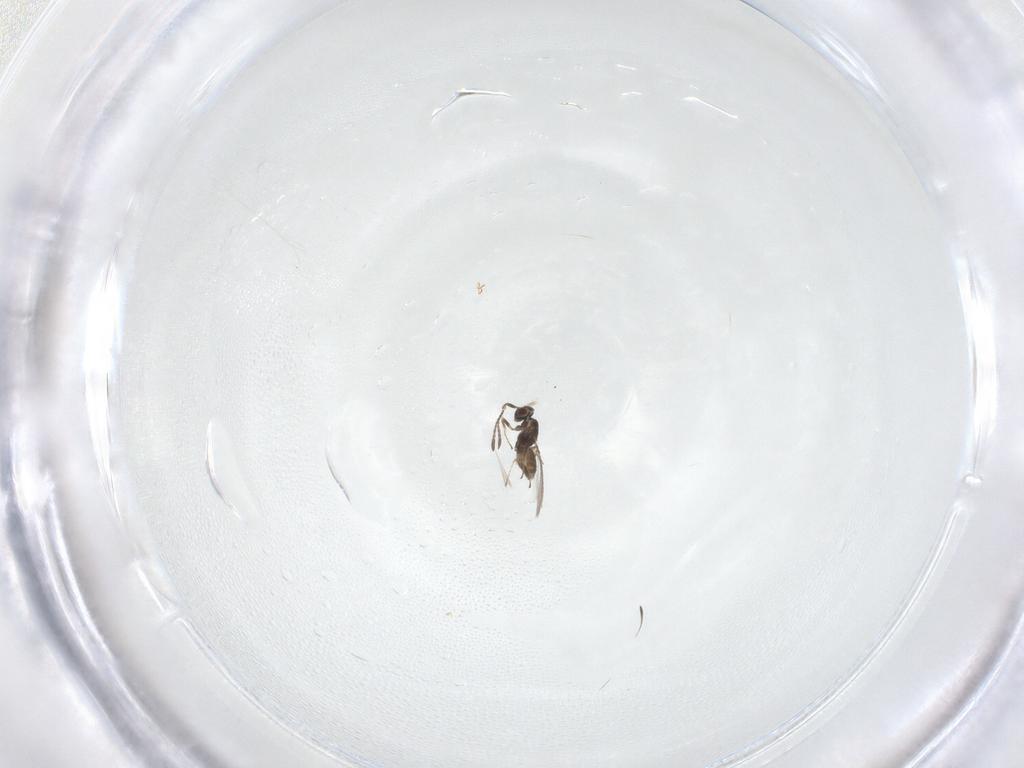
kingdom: Animalia
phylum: Arthropoda
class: Insecta
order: Hymenoptera
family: Mymaridae
